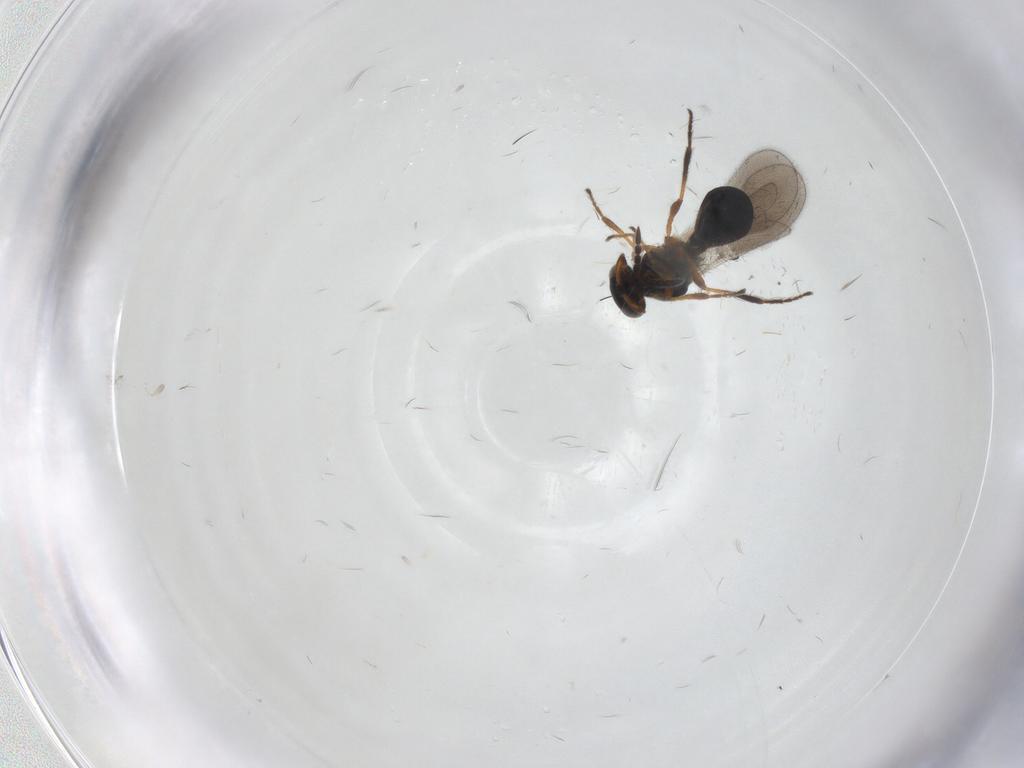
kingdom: Animalia
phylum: Arthropoda
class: Insecta
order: Hymenoptera
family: Platygastridae
